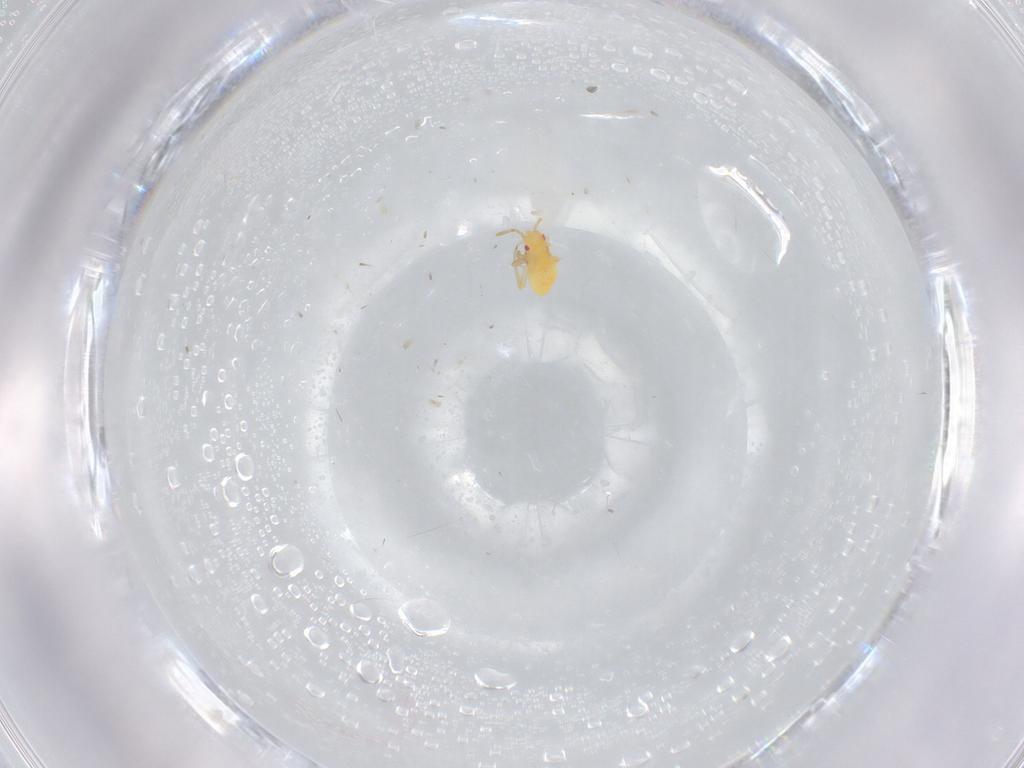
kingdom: Animalia
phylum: Arthropoda
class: Insecta
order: Hemiptera
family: Miridae
